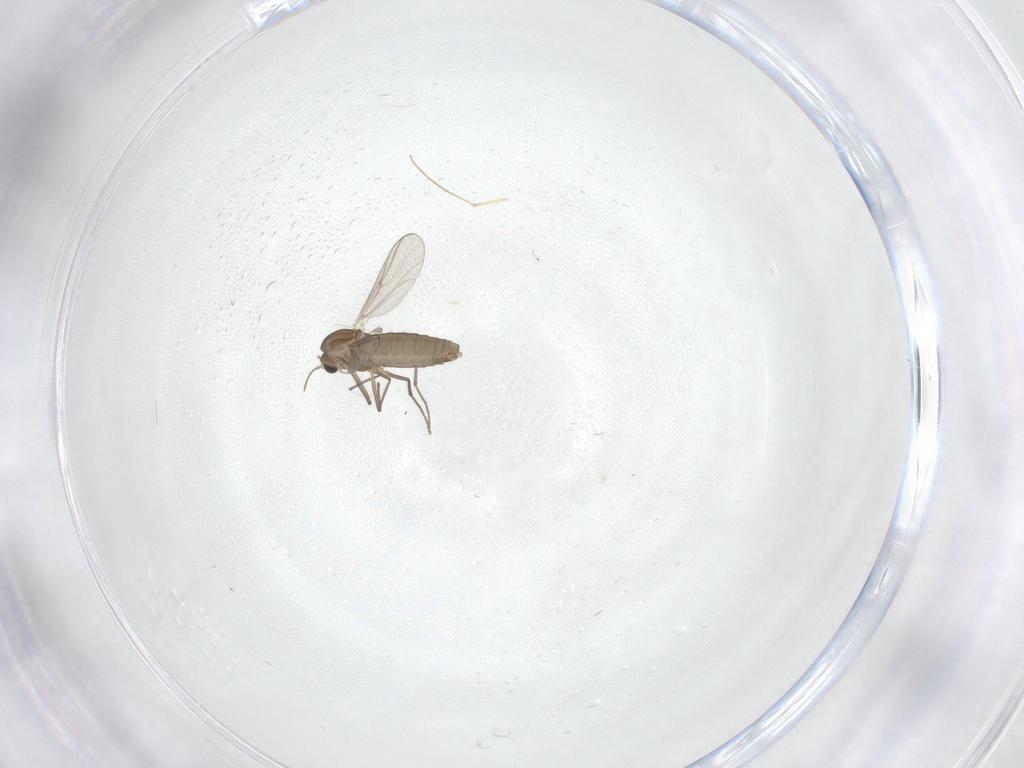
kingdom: Animalia
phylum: Arthropoda
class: Insecta
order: Diptera
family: Chironomidae
